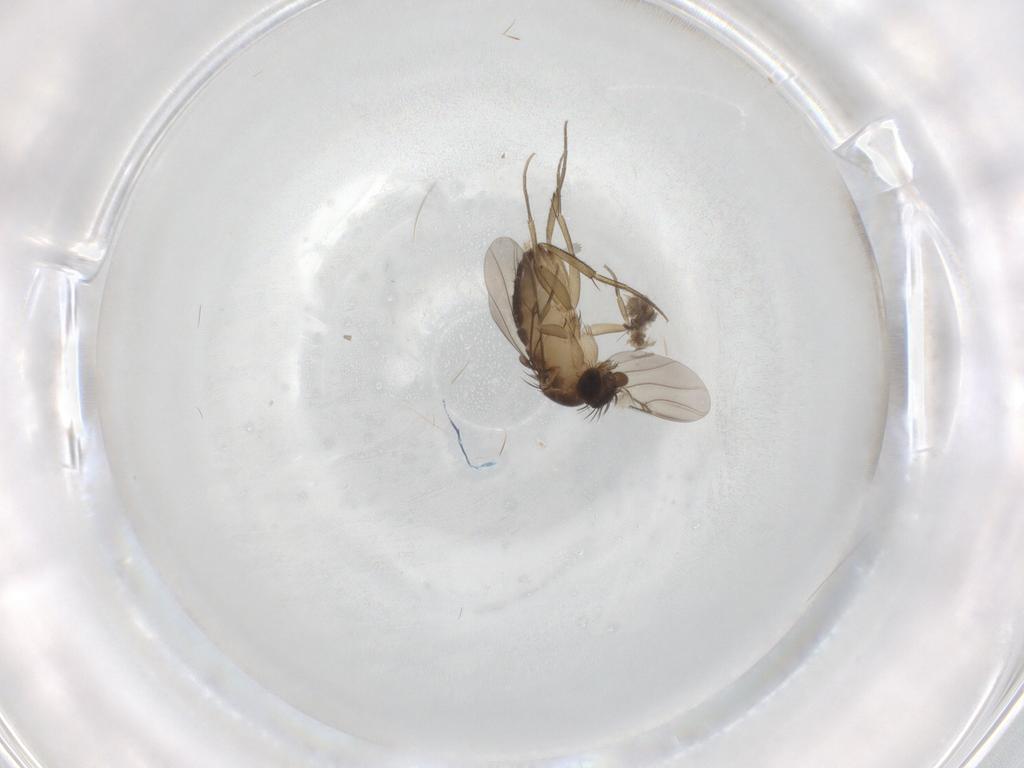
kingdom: Animalia
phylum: Arthropoda
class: Insecta
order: Diptera
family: Phoridae
